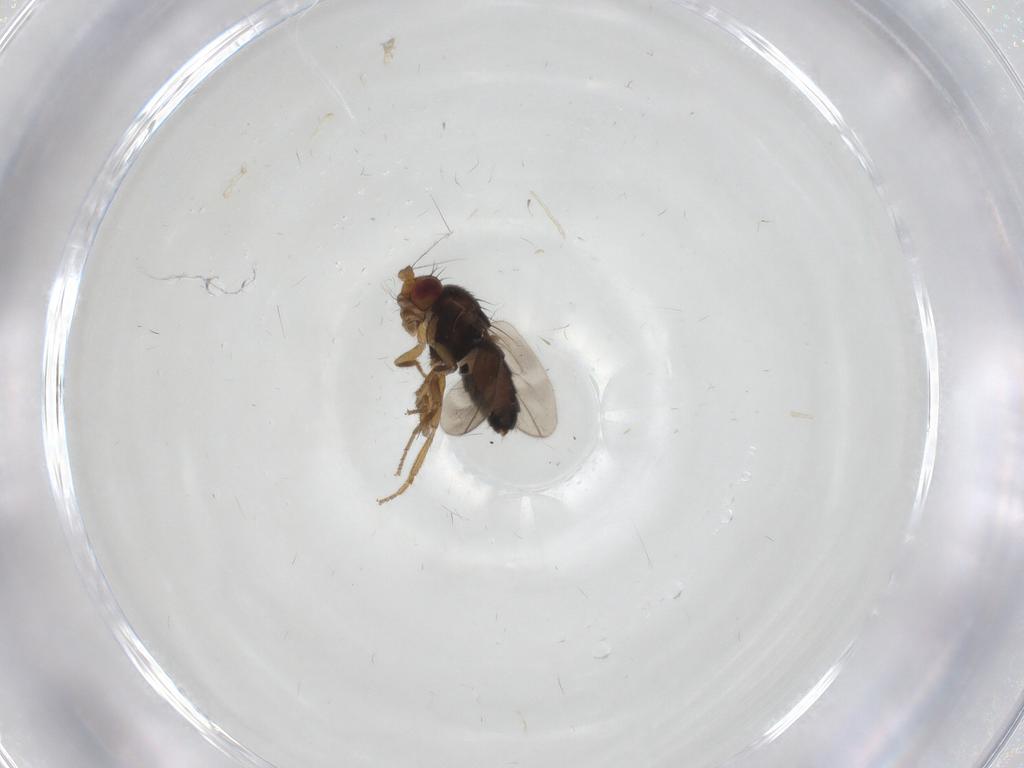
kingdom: Animalia
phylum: Arthropoda
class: Insecta
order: Diptera
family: Sphaeroceridae
